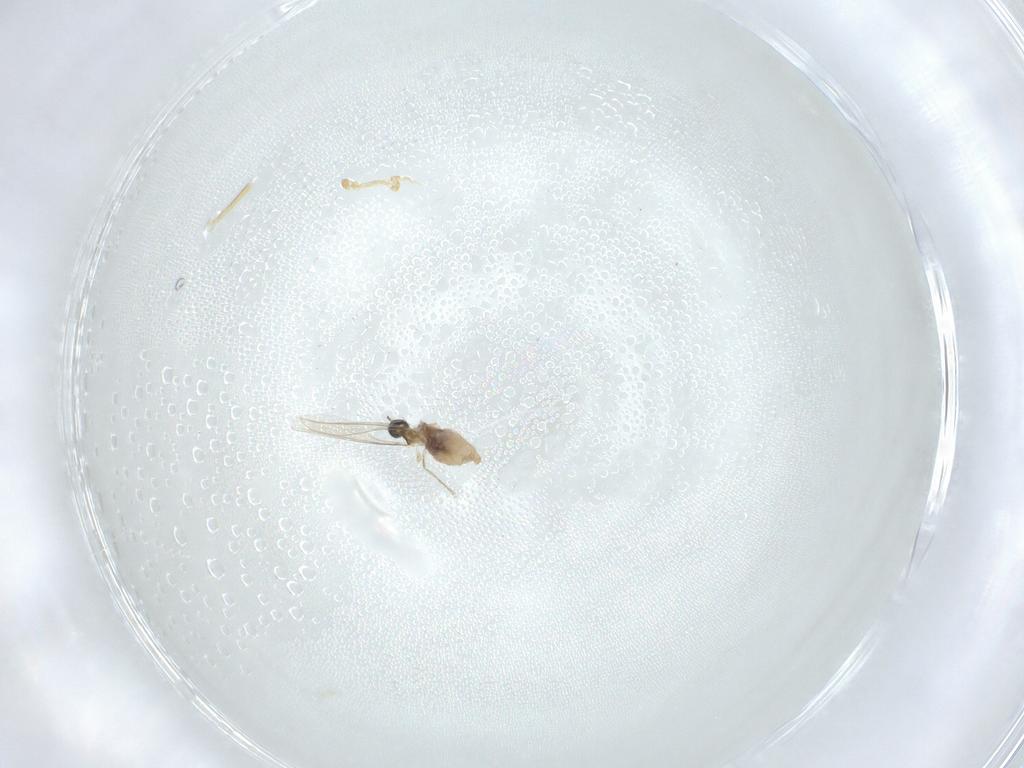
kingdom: Animalia
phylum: Arthropoda
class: Insecta
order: Diptera
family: Cecidomyiidae
